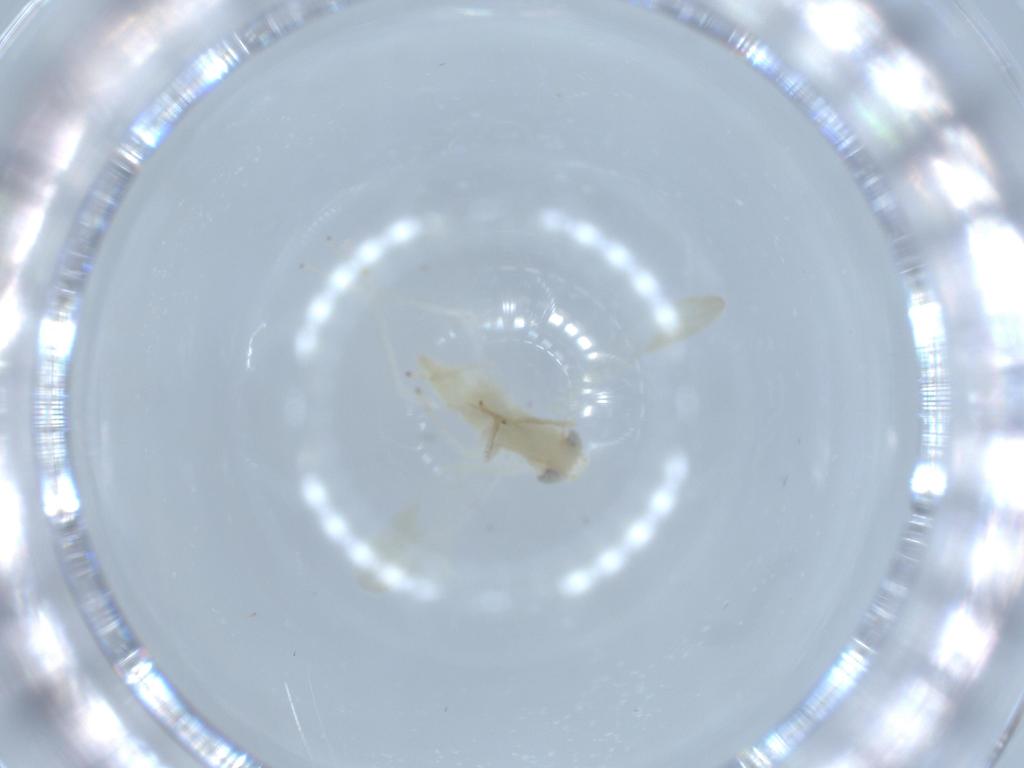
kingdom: Animalia
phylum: Arthropoda
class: Insecta
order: Hemiptera
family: Cicadellidae
